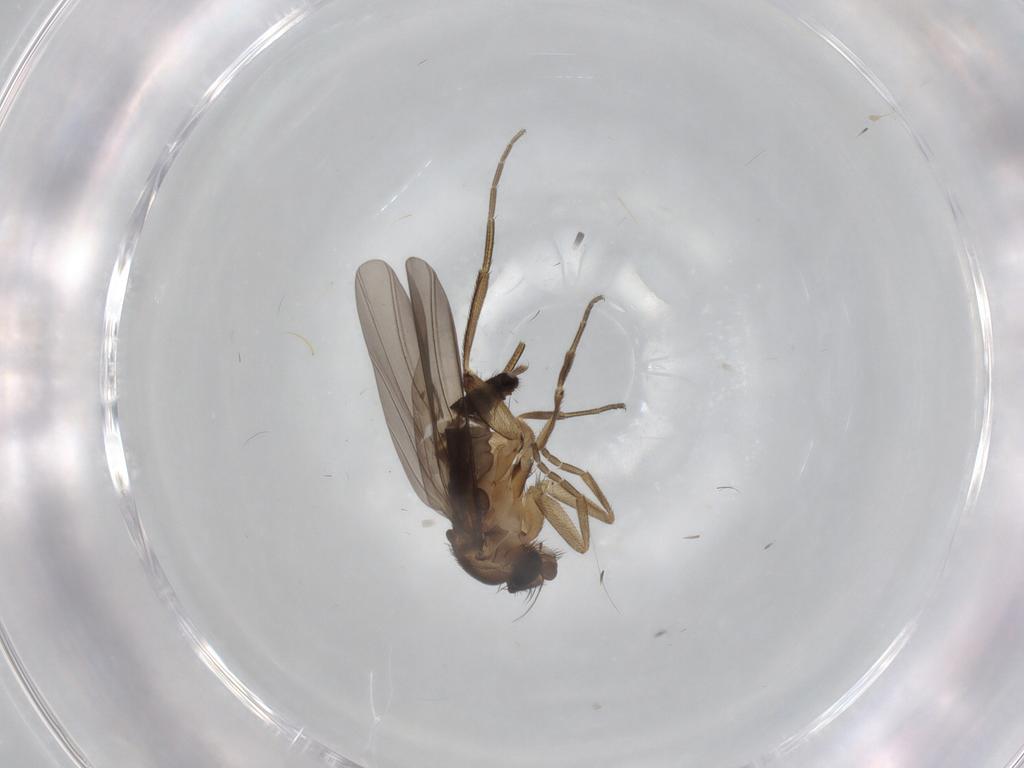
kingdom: Animalia
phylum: Arthropoda
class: Insecta
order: Diptera
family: Phoridae
